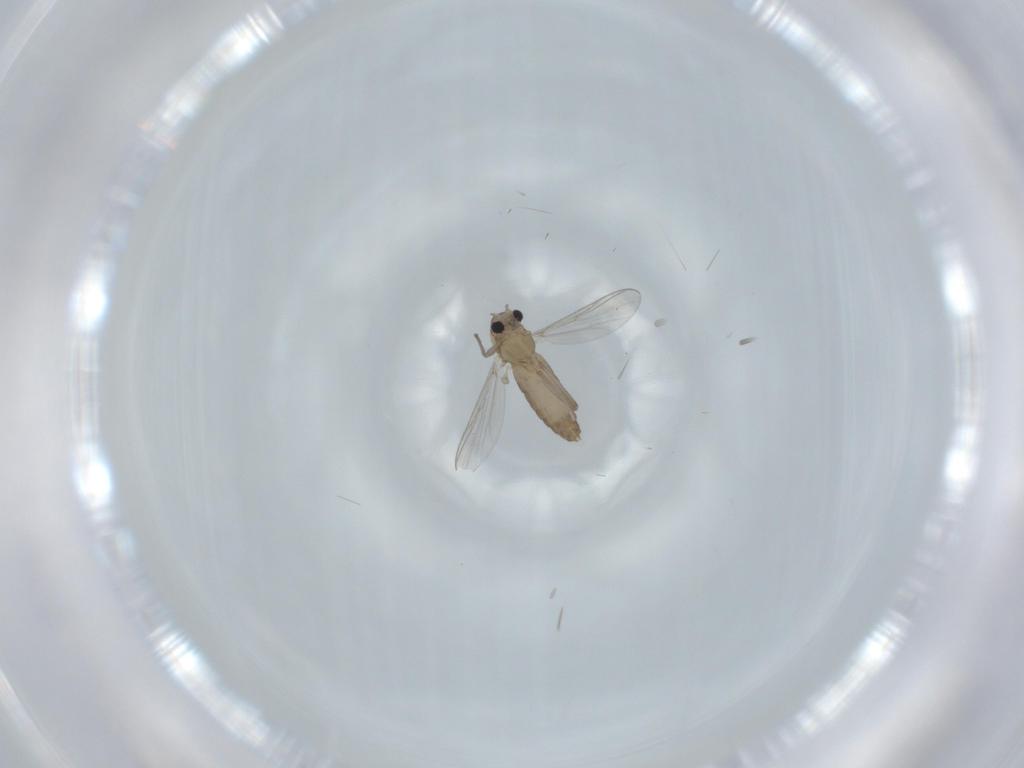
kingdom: Animalia
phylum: Arthropoda
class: Insecta
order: Diptera
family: Chironomidae
